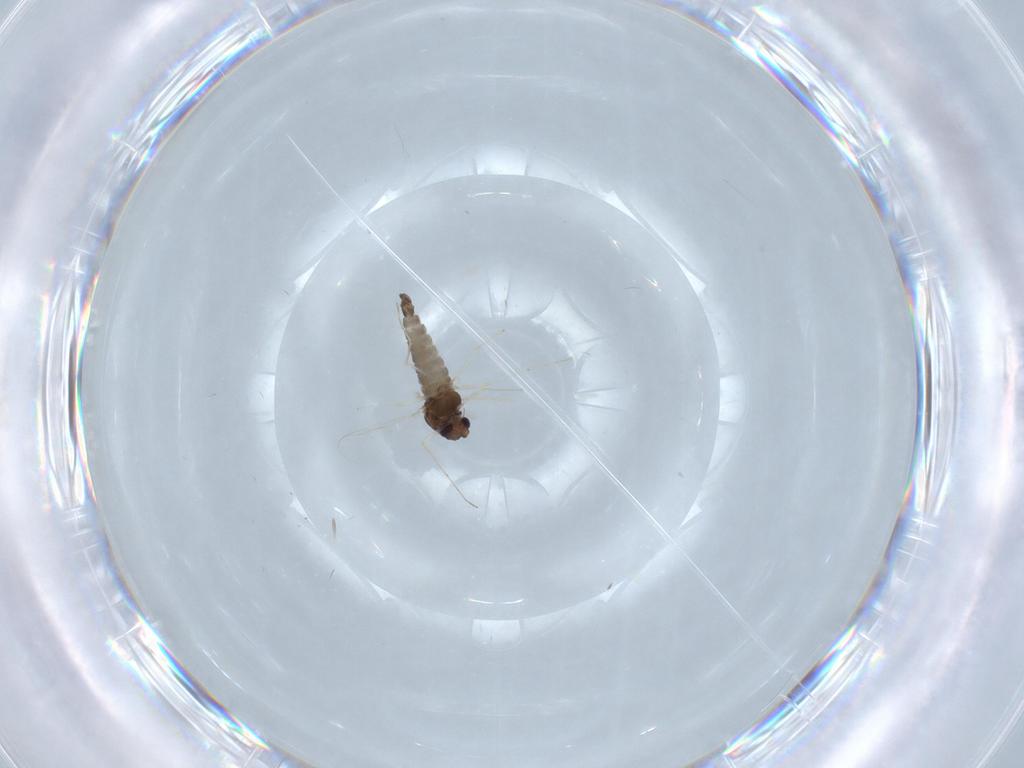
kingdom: Animalia
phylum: Arthropoda
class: Insecta
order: Diptera
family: Chironomidae
